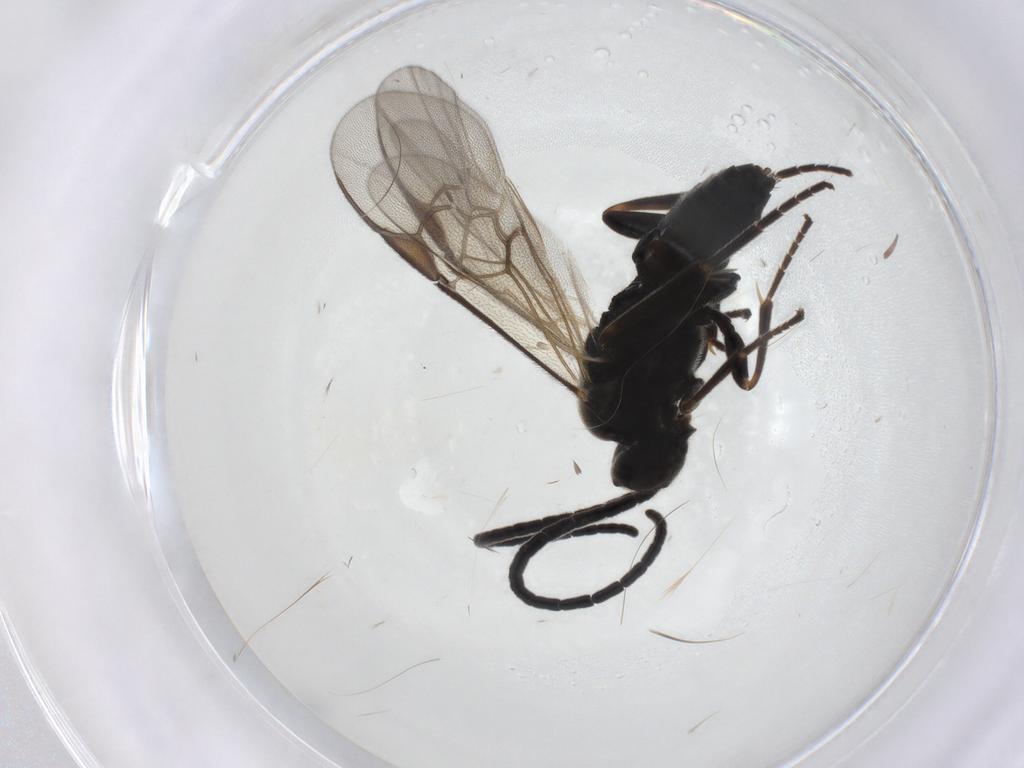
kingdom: Animalia
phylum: Arthropoda
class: Insecta
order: Hymenoptera
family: Braconidae
